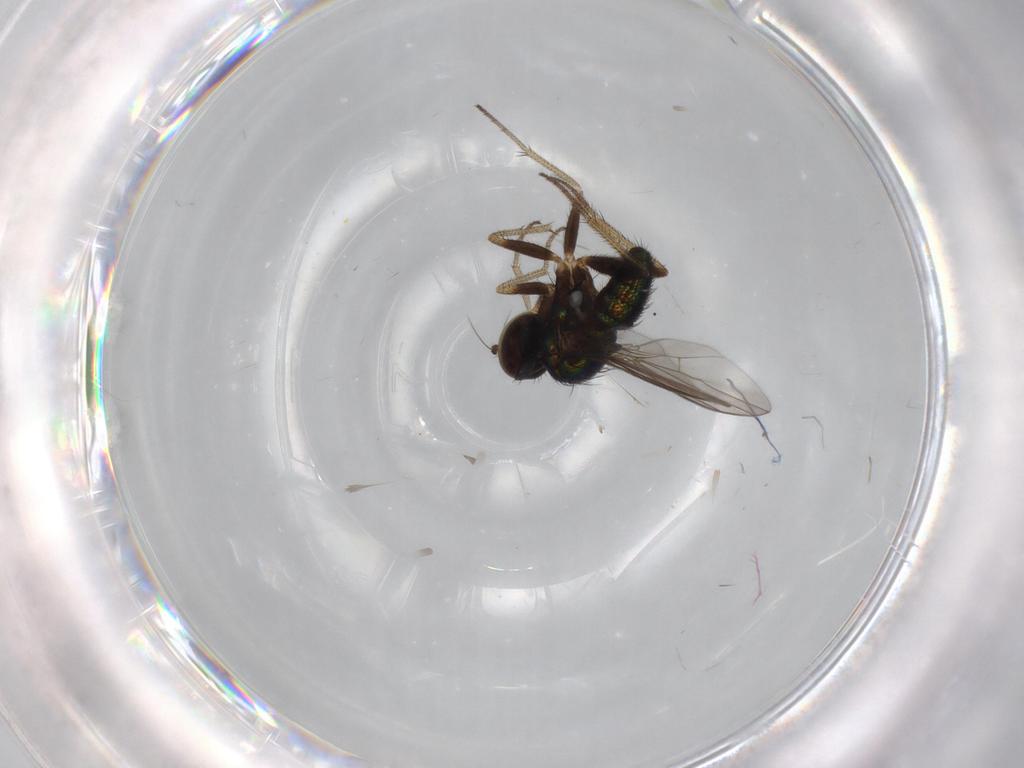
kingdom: Animalia
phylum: Arthropoda
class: Insecta
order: Diptera
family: Dolichopodidae
